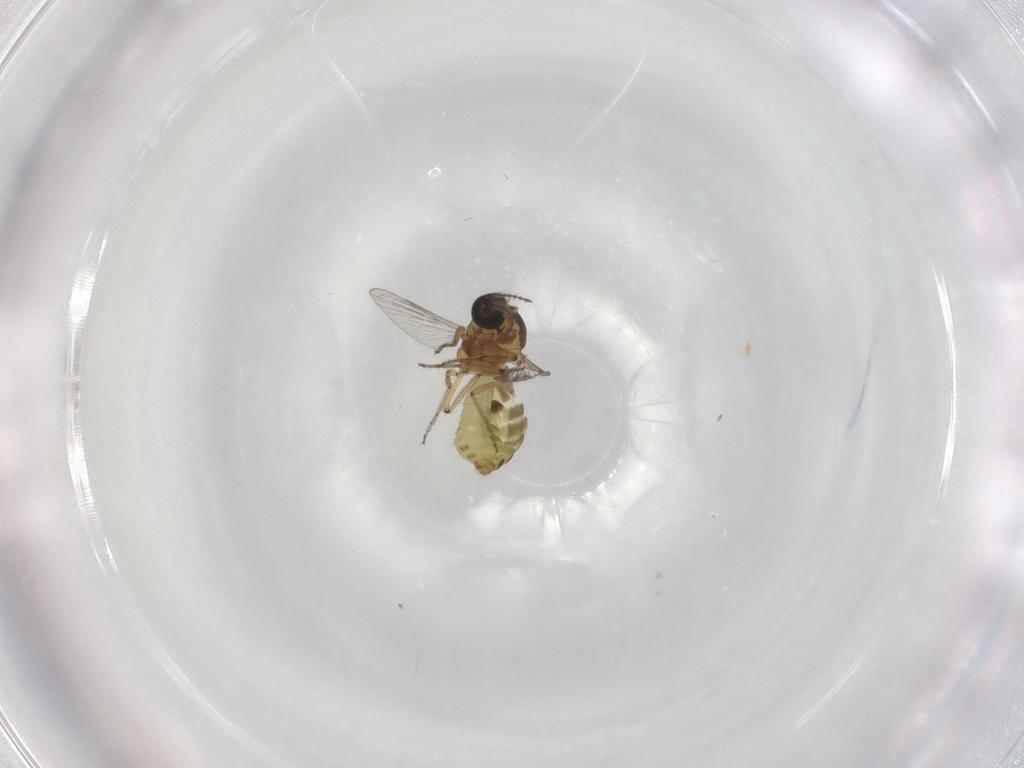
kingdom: Animalia
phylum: Arthropoda
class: Insecta
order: Diptera
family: Ceratopogonidae
